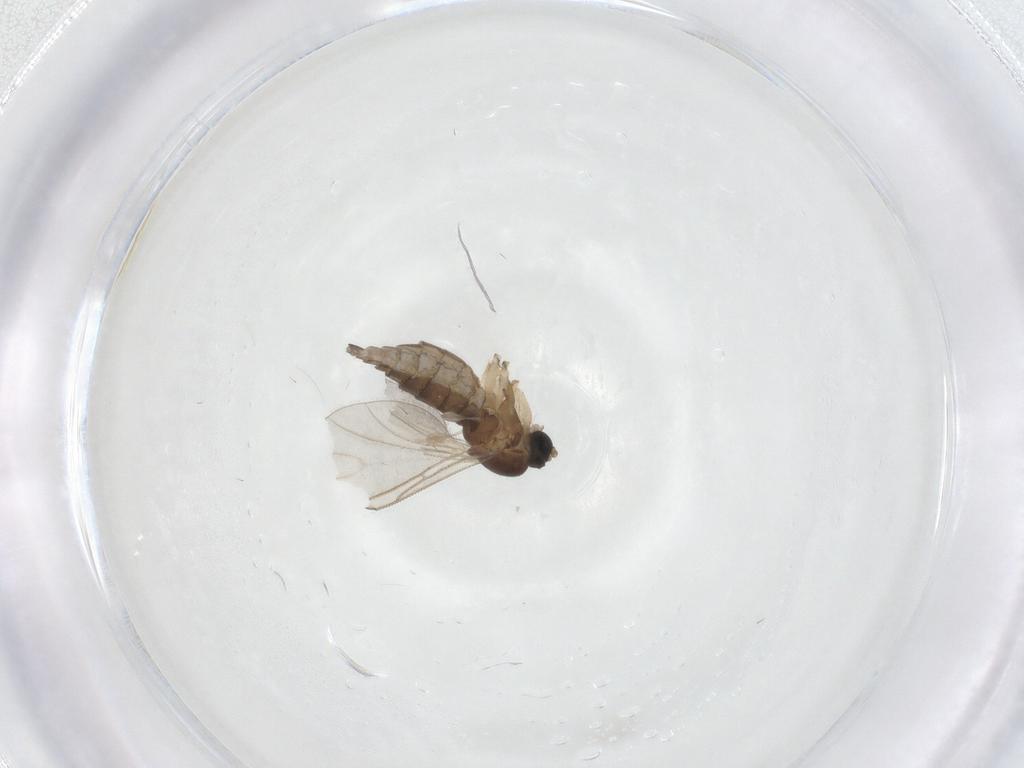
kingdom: Animalia
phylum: Arthropoda
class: Insecta
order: Diptera
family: Sciaridae
